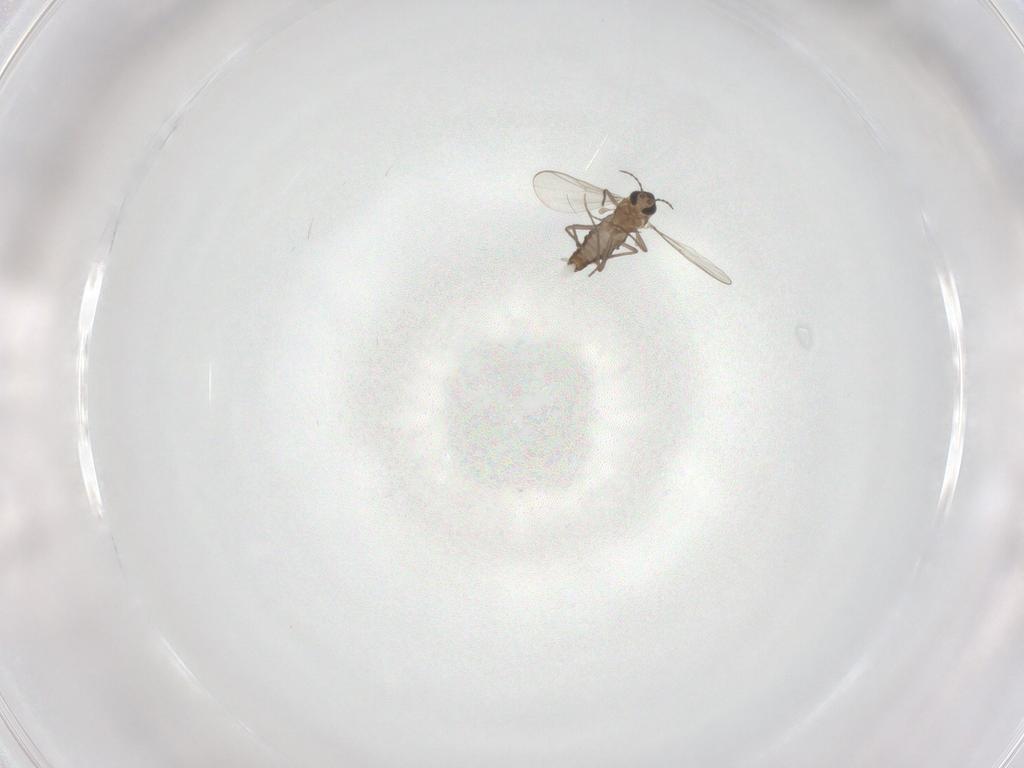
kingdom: Animalia
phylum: Arthropoda
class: Insecta
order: Diptera
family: Chironomidae
